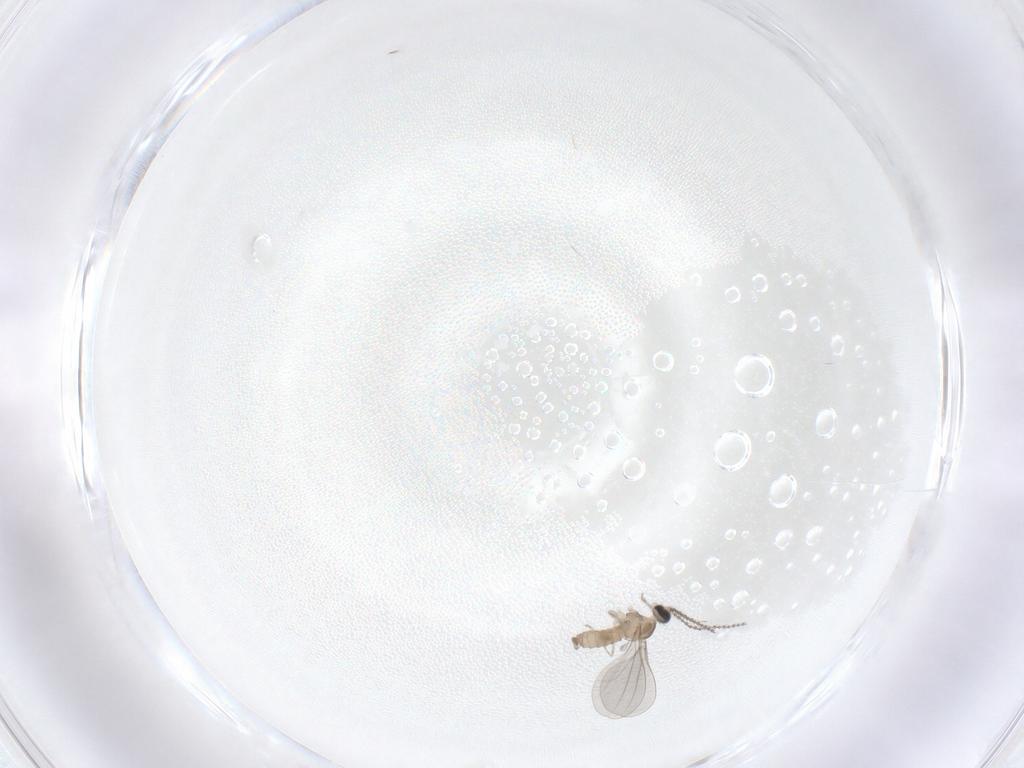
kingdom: Animalia
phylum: Arthropoda
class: Insecta
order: Diptera
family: Cecidomyiidae
